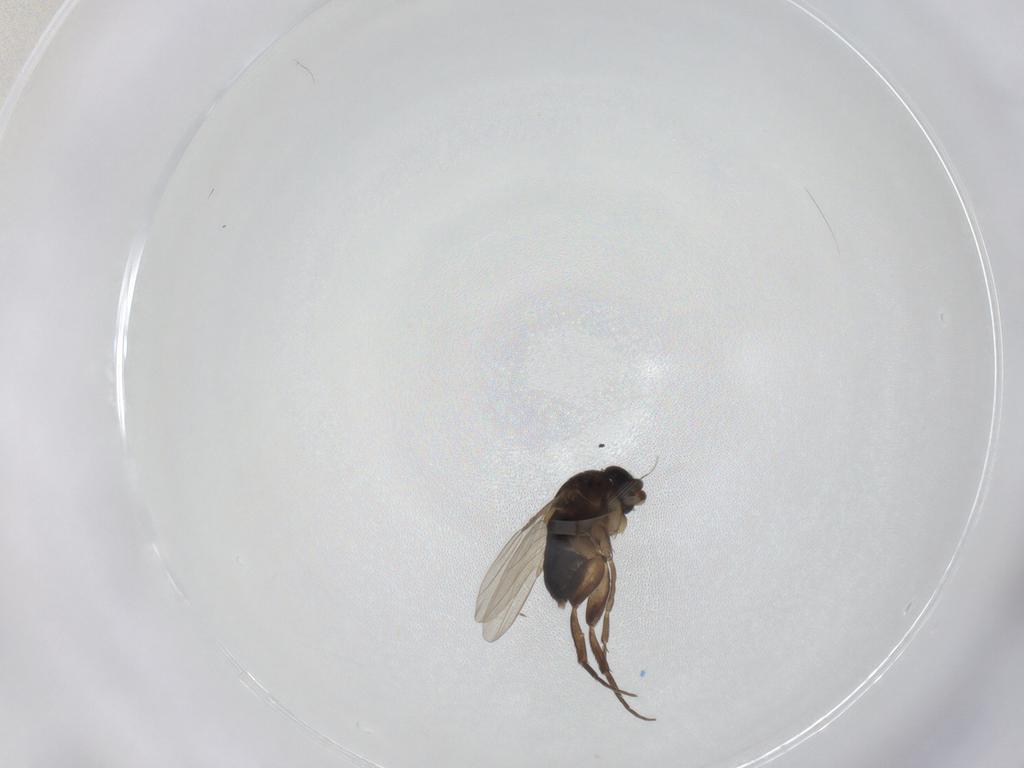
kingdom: Animalia
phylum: Arthropoda
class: Insecta
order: Diptera
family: Phoridae
